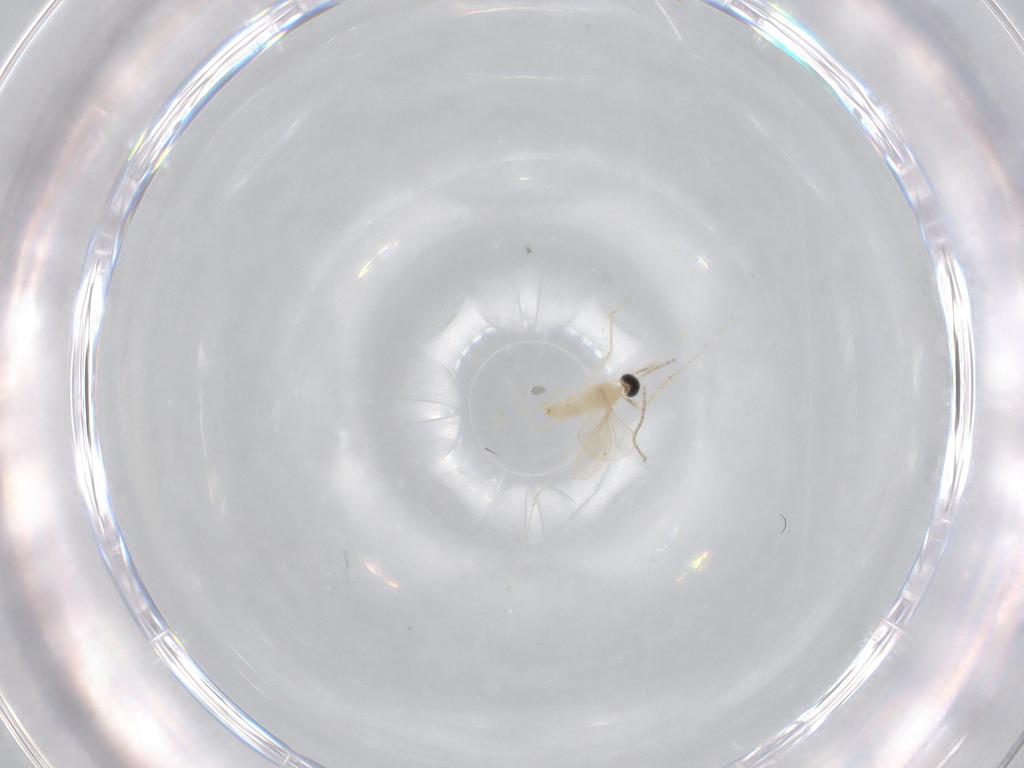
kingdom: Animalia
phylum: Arthropoda
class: Insecta
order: Diptera
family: Cecidomyiidae
